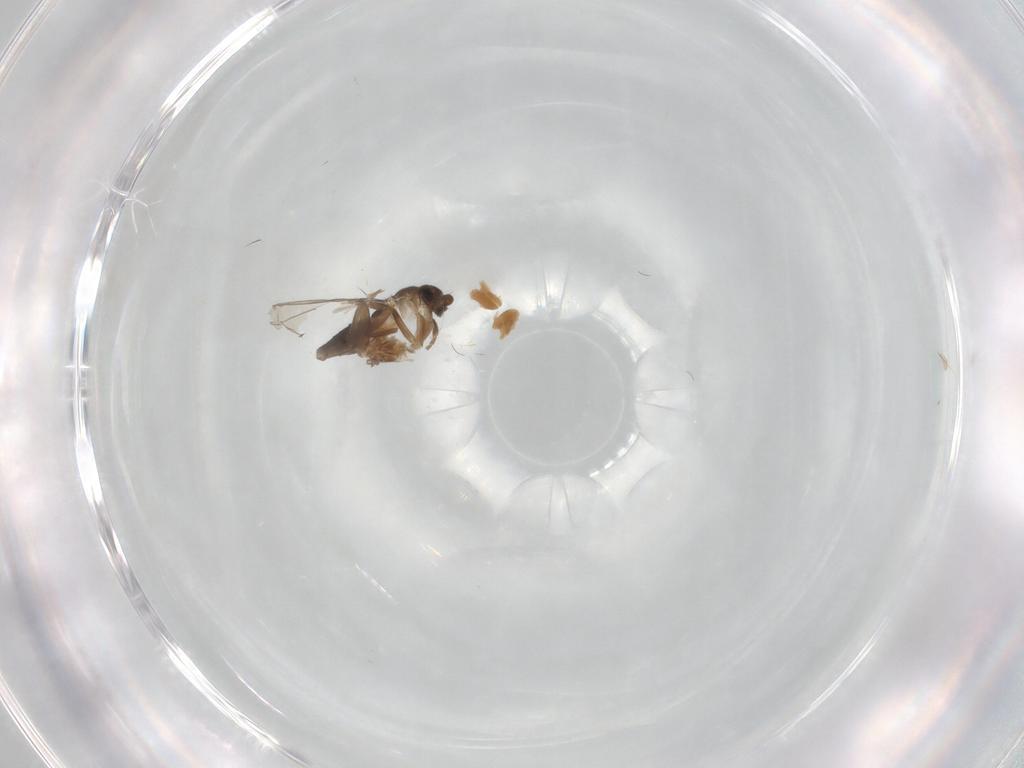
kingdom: Animalia
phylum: Arthropoda
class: Insecta
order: Diptera
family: Chironomidae
